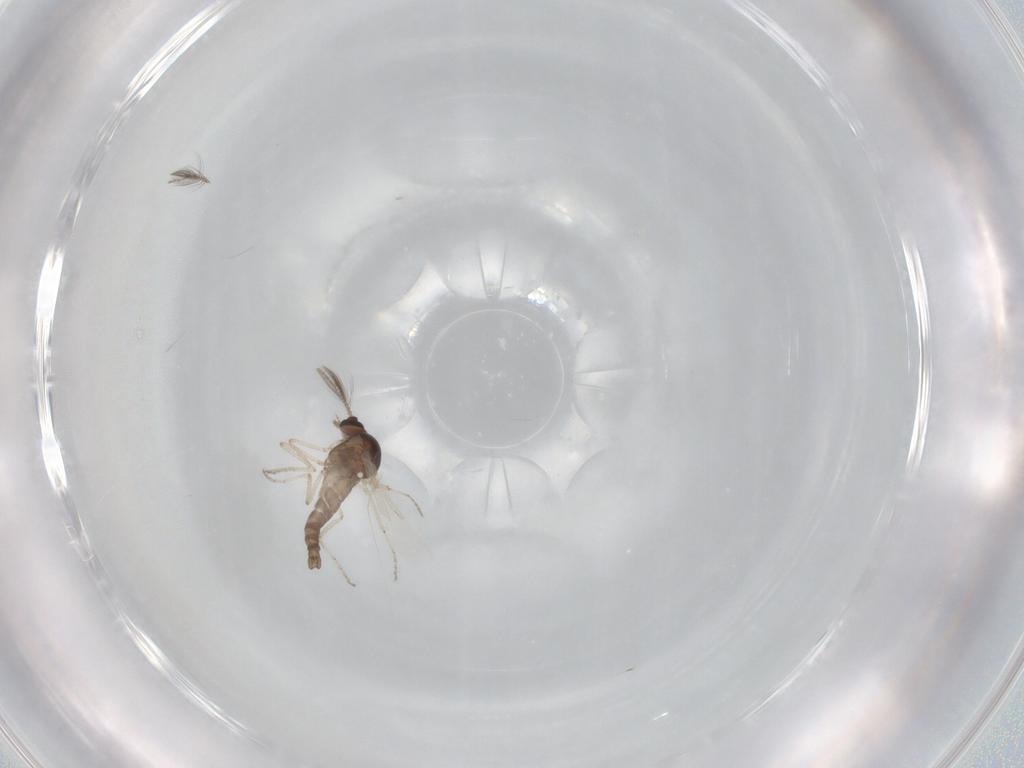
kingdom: Animalia
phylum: Arthropoda
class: Insecta
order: Diptera
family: Ceratopogonidae
